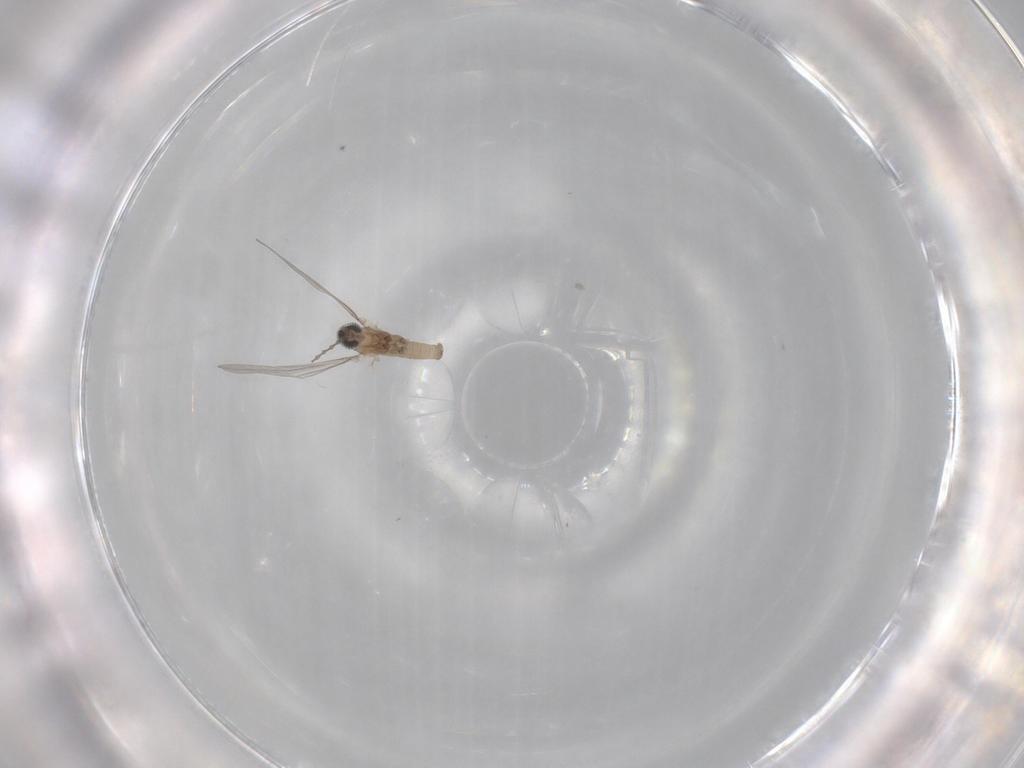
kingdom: Animalia
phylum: Arthropoda
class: Insecta
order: Diptera
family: Cecidomyiidae
